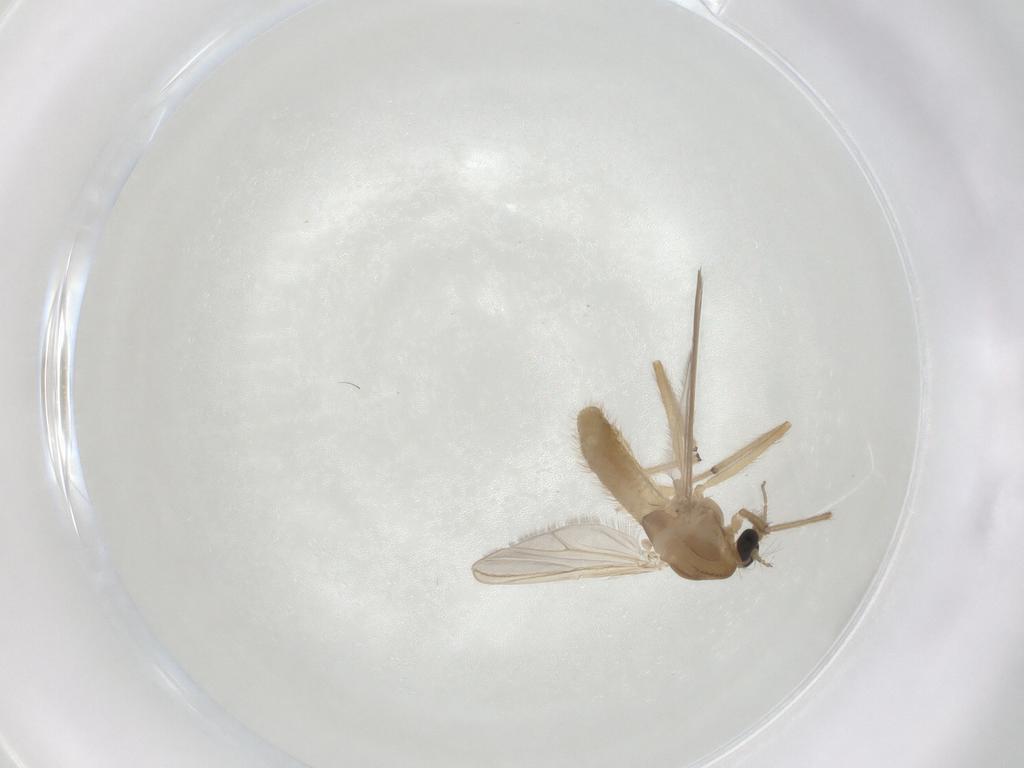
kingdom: Animalia
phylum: Arthropoda
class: Insecta
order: Diptera
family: Chironomidae
